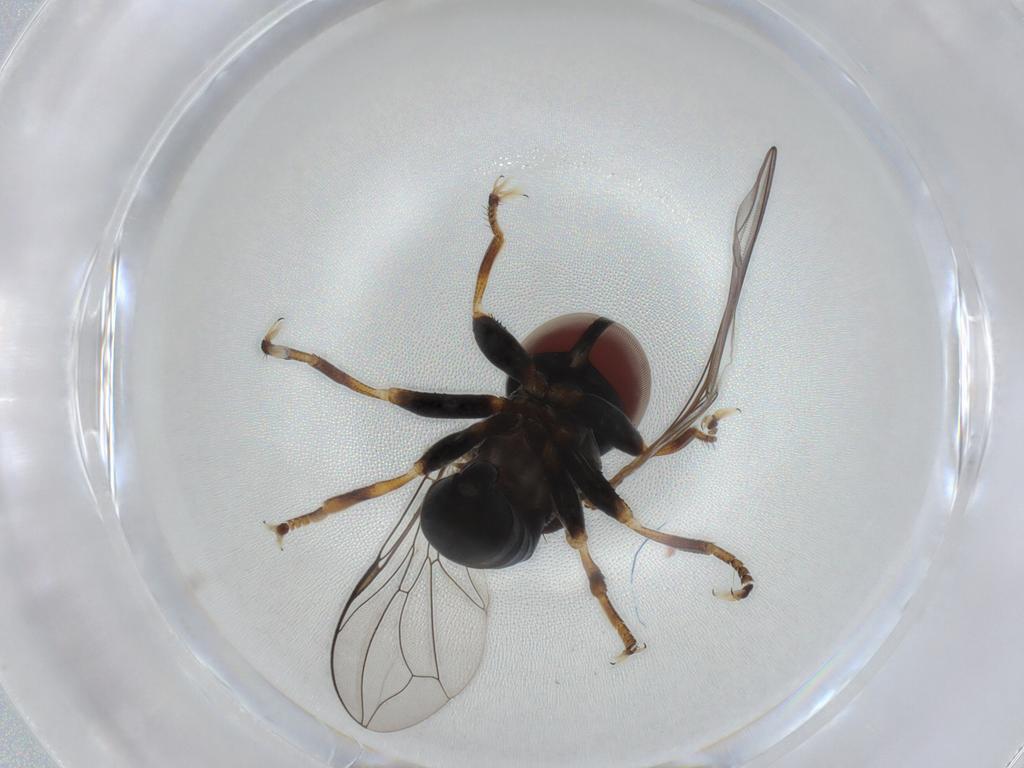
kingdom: Animalia
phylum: Arthropoda
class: Insecta
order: Diptera
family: Pipunculidae
